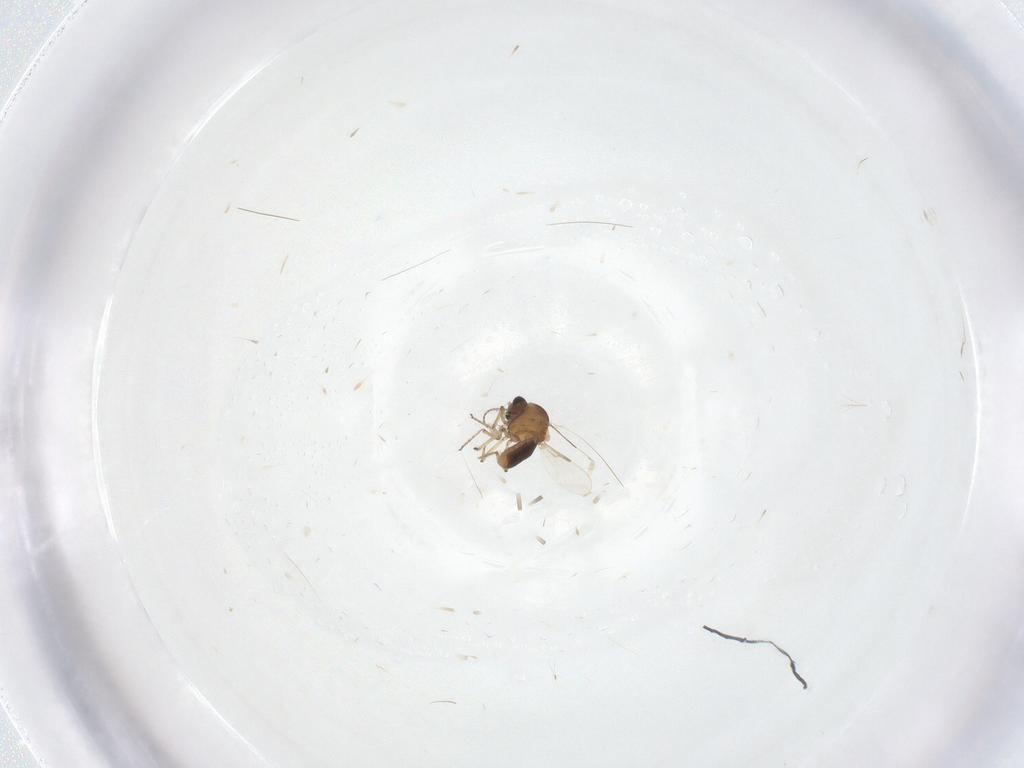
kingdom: Animalia
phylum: Arthropoda
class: Insecta
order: Diptera
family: Ceratopogonidae
